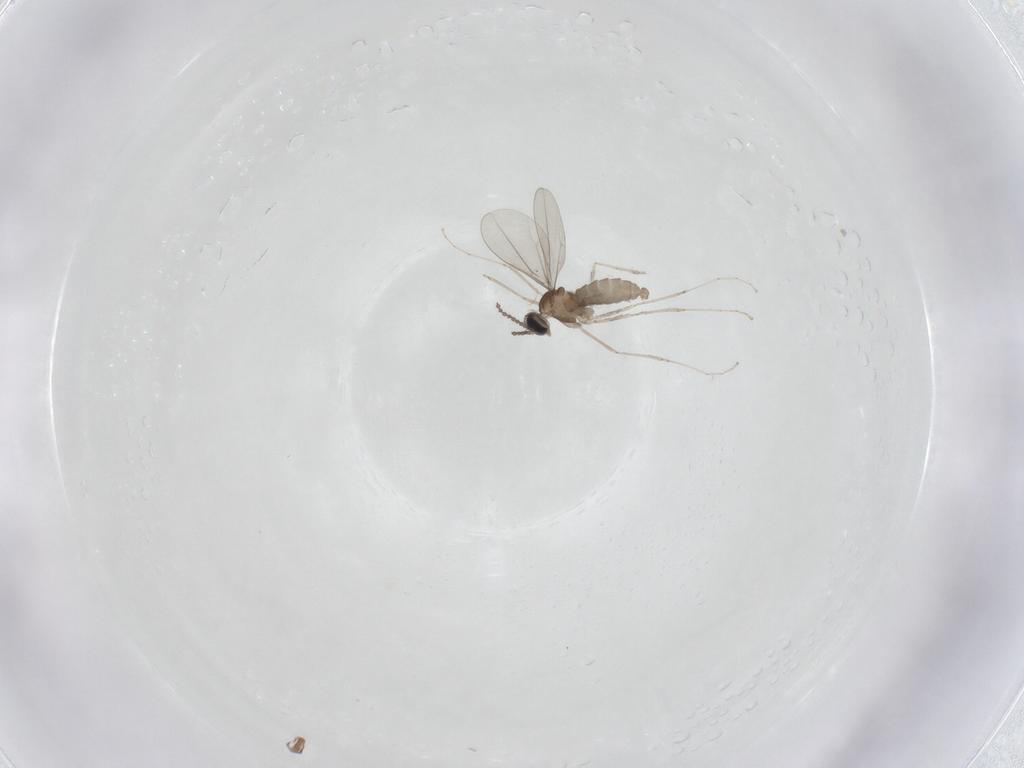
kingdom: Animalia
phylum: Arthropoda
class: Insecta
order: Diptera
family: Cecidomyiidae
